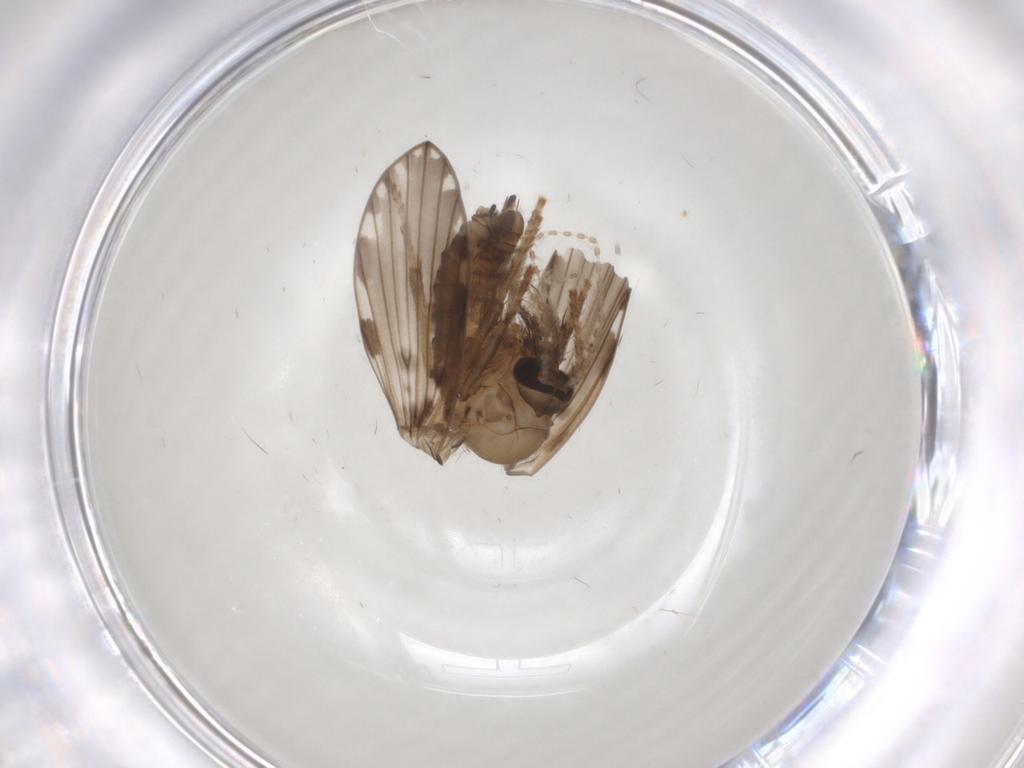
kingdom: Animalia
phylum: Arthropoda
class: Insecta
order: Diptera
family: Psychodidae
